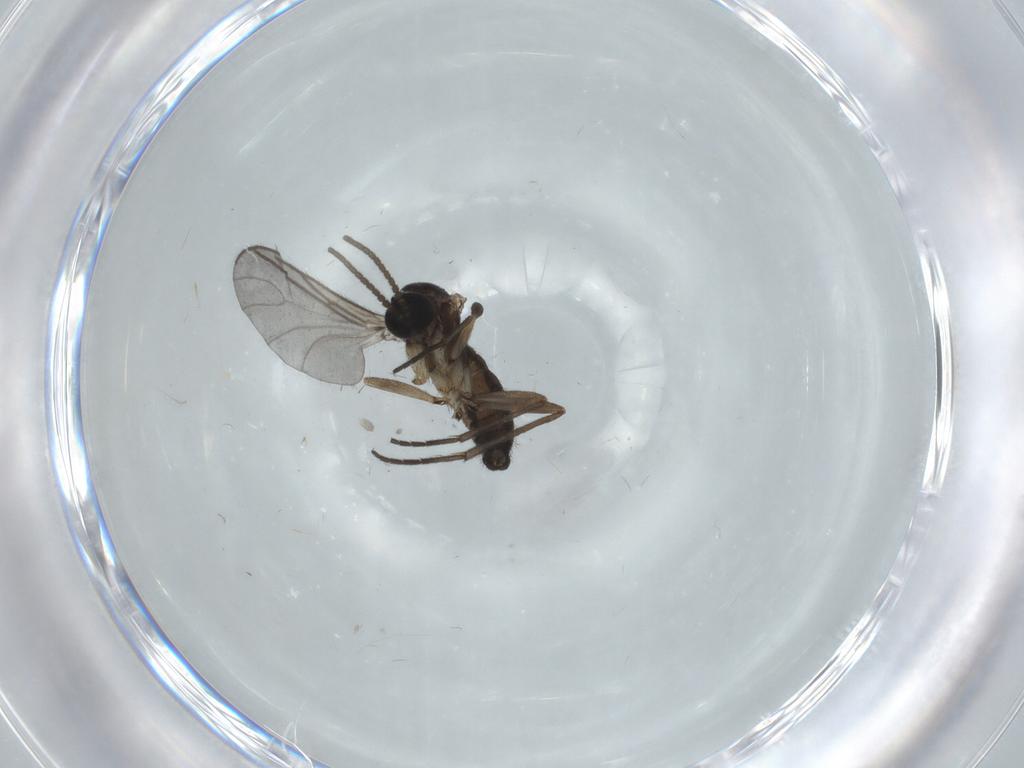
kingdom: Animalia
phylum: Arthropoda
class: Insecta
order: Diptera
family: Sciaridae
